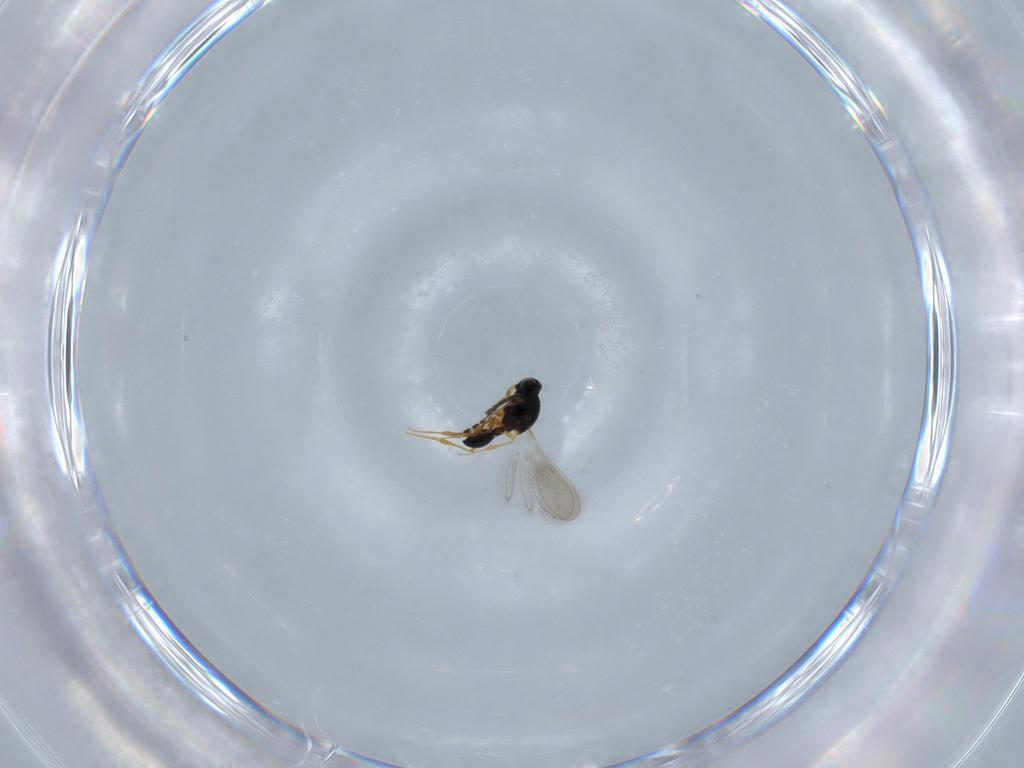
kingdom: Animalia
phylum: Arthropoda
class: Insecta
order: Hymenoptera
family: Platygastridae
